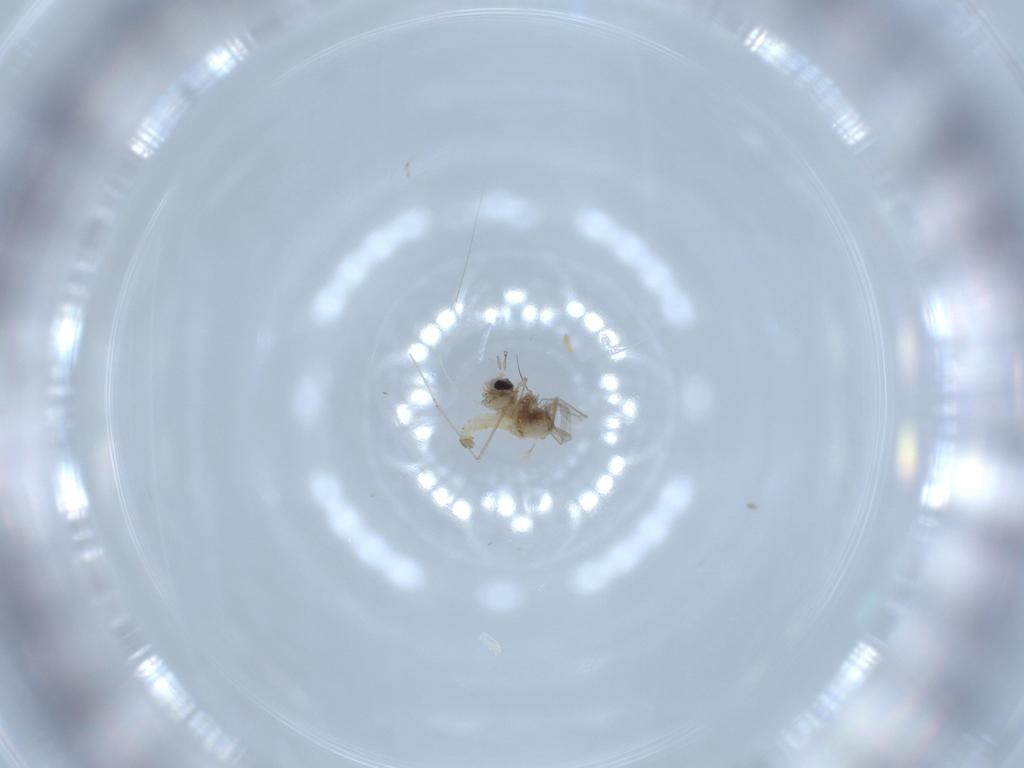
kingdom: Animalia
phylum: Arthropoda
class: Insecta
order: Diptera
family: Cecidomyiidae
